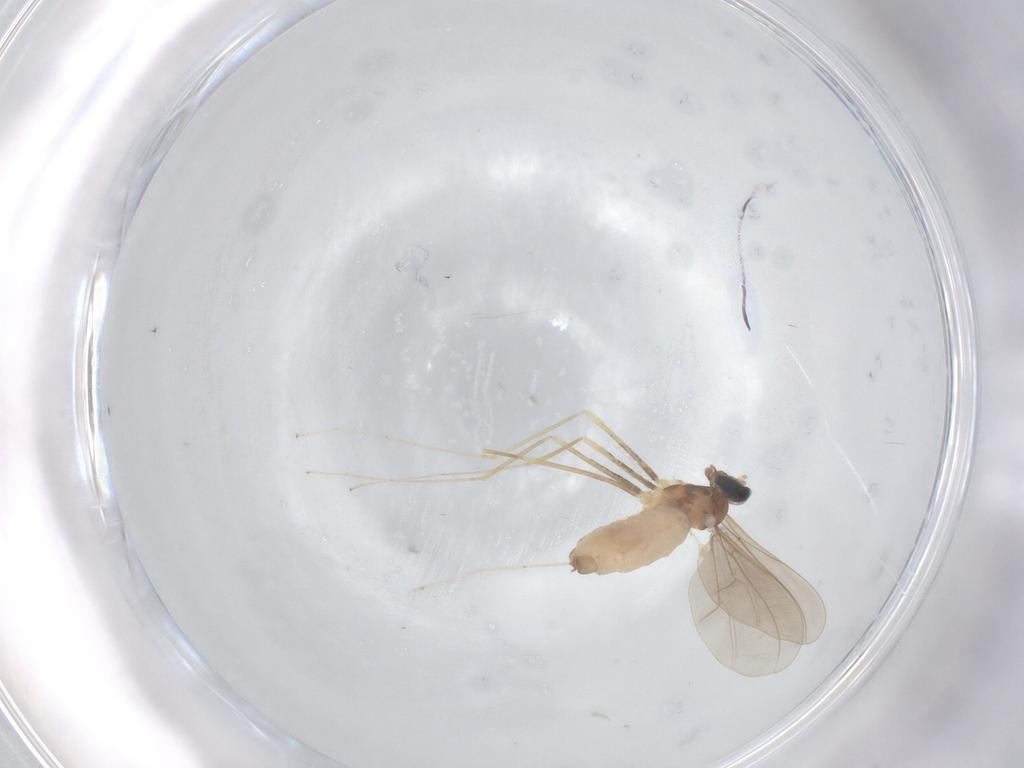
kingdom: Animalia
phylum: Arthropoda
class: Insecta
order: Diptera
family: Cecidomyiidae
